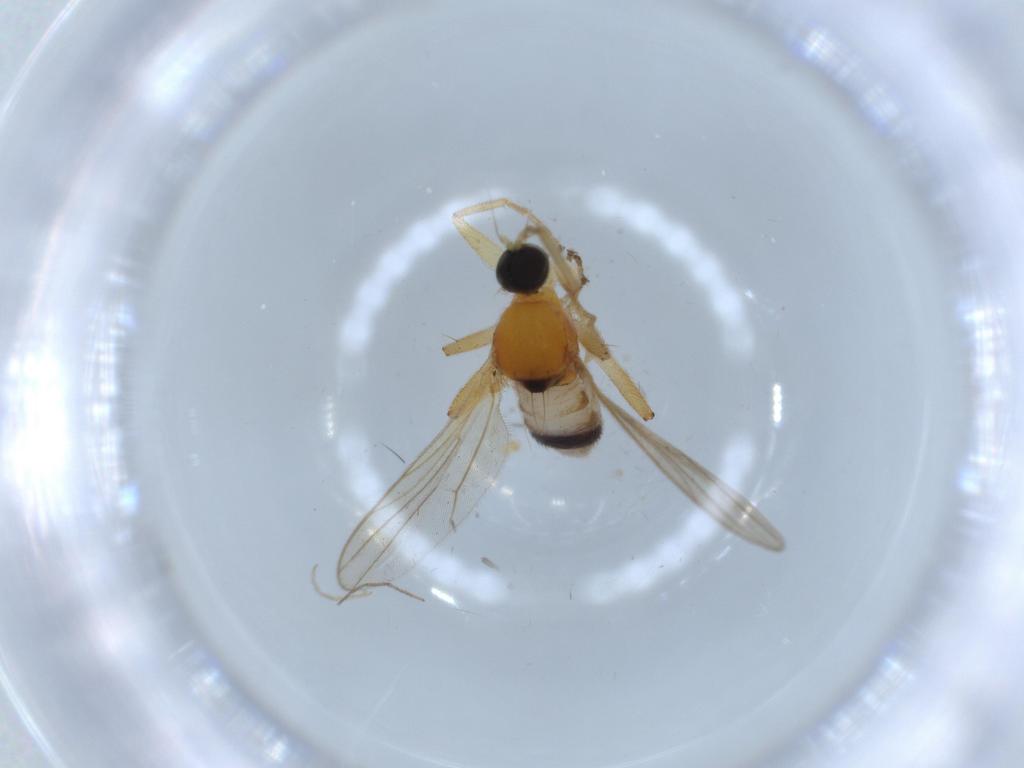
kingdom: Animalia
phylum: Arthropoda
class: Insecta
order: Diptera
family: Hybotidae
